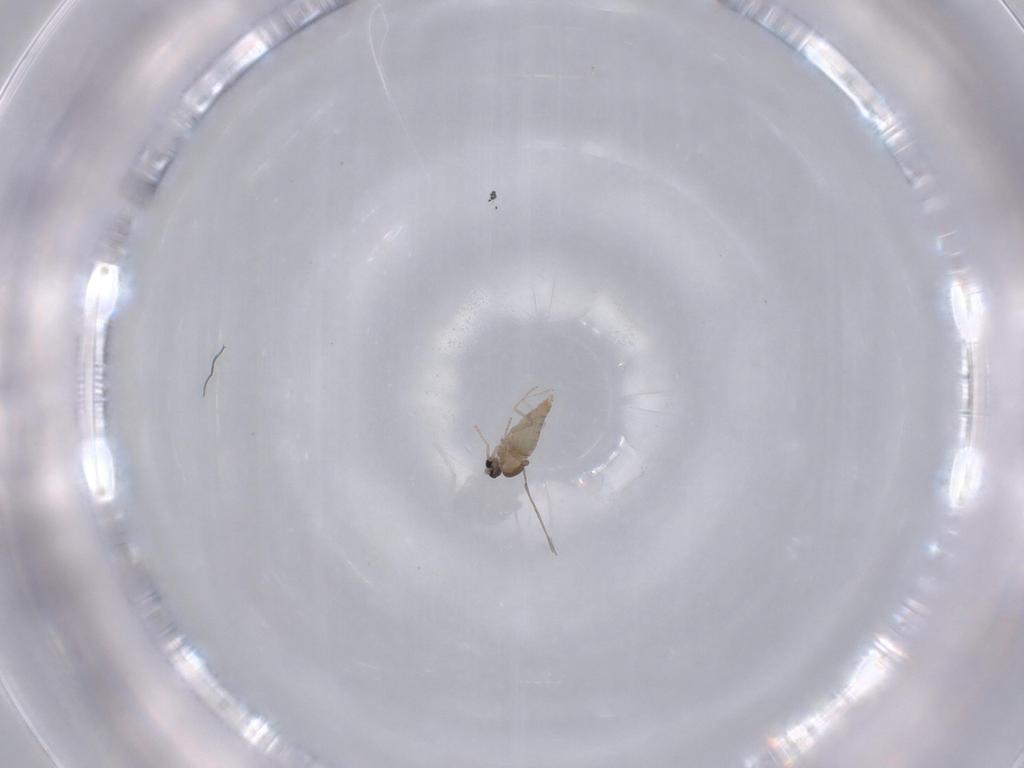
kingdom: Animalia
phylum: Arthropoda
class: Insecta
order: Diptera
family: Cecidomyiidae
